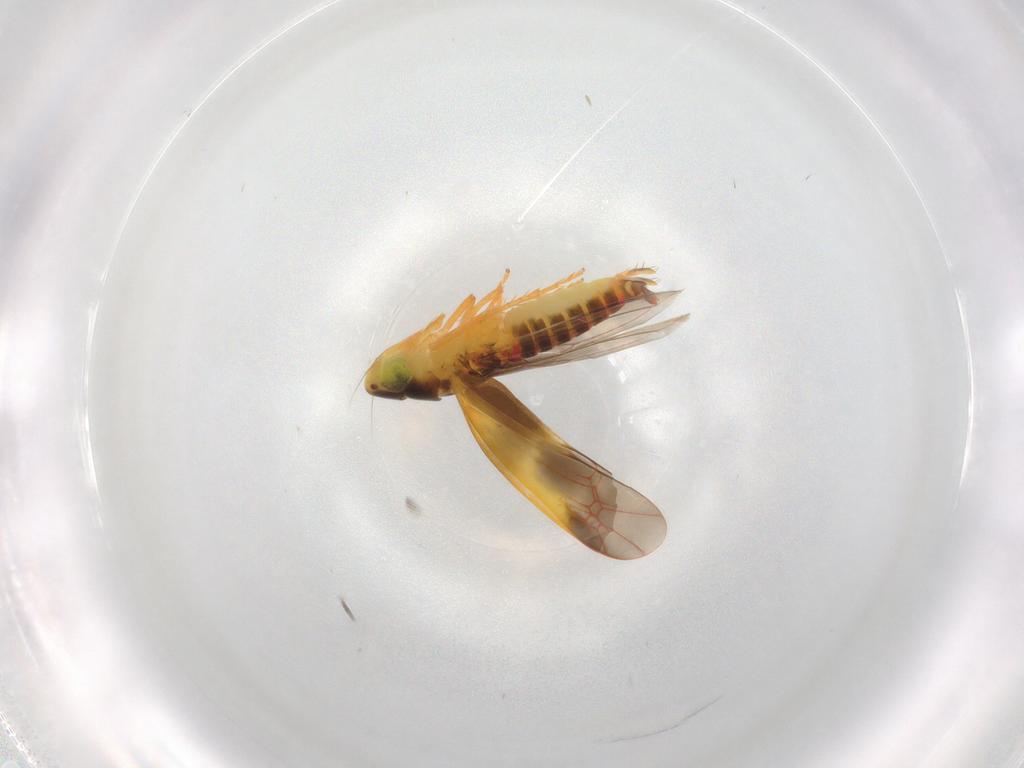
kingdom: Animalia
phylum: Arthropoda
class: Insecta
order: Hemiptera
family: Cicadellidae
